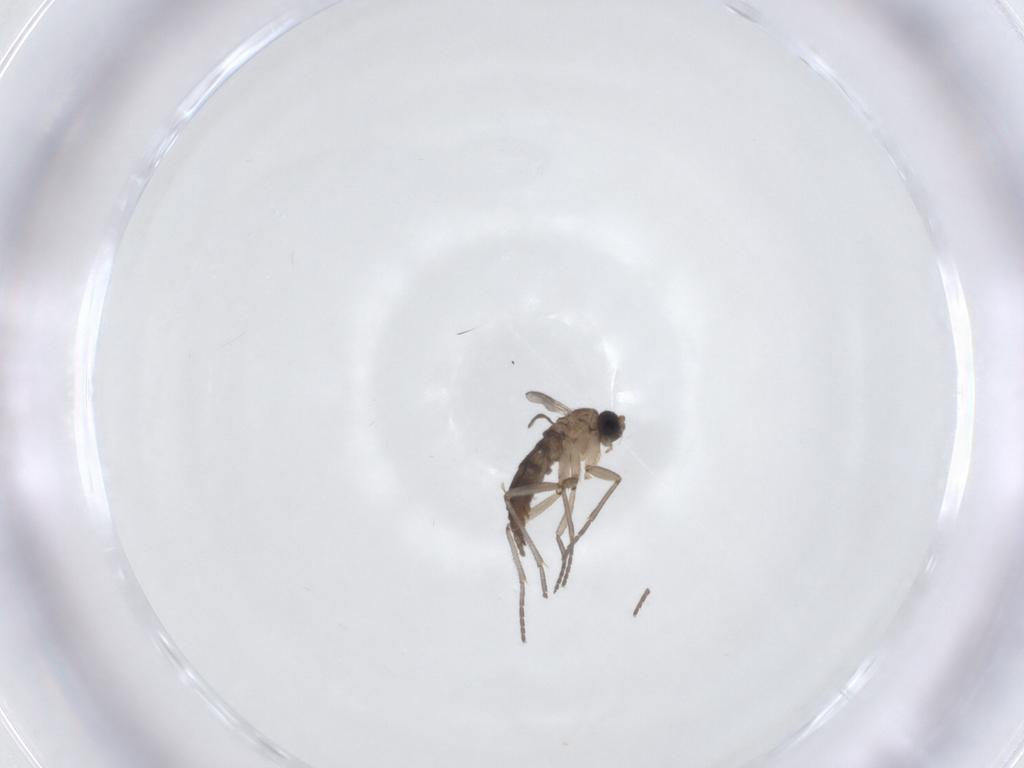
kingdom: Animalia
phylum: Arthropoda
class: Insecta
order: Diptera
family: Sciaridae
